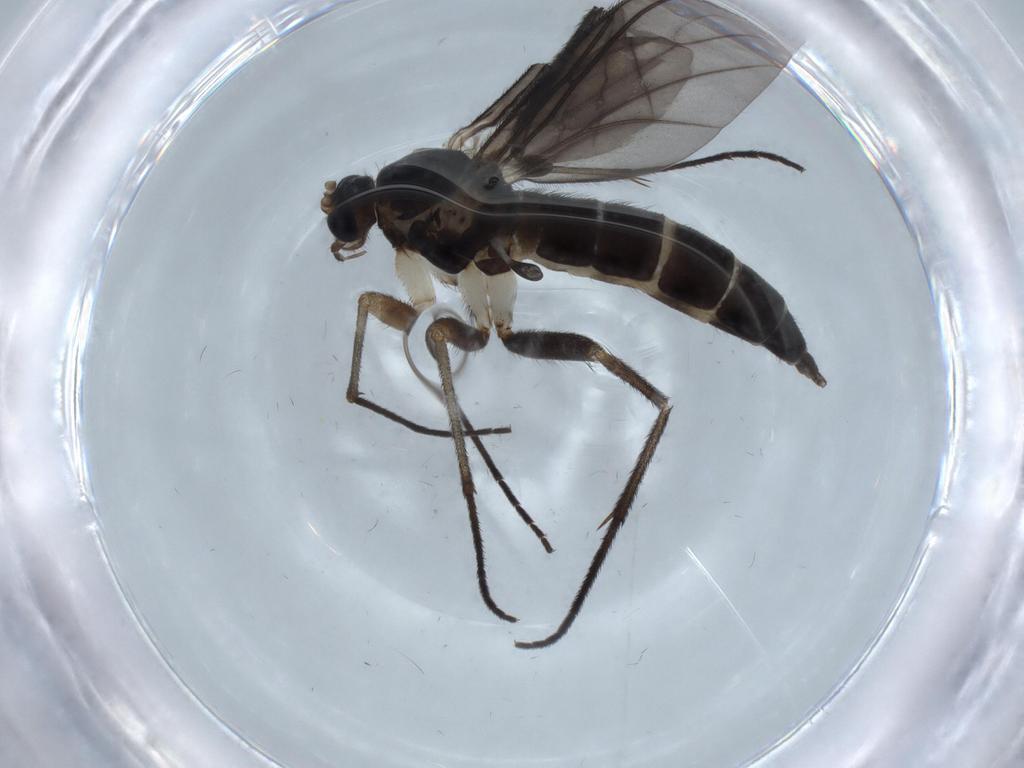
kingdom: Animalia
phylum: Arthropoda
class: Insecta
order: Diptera
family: Sciaridae
